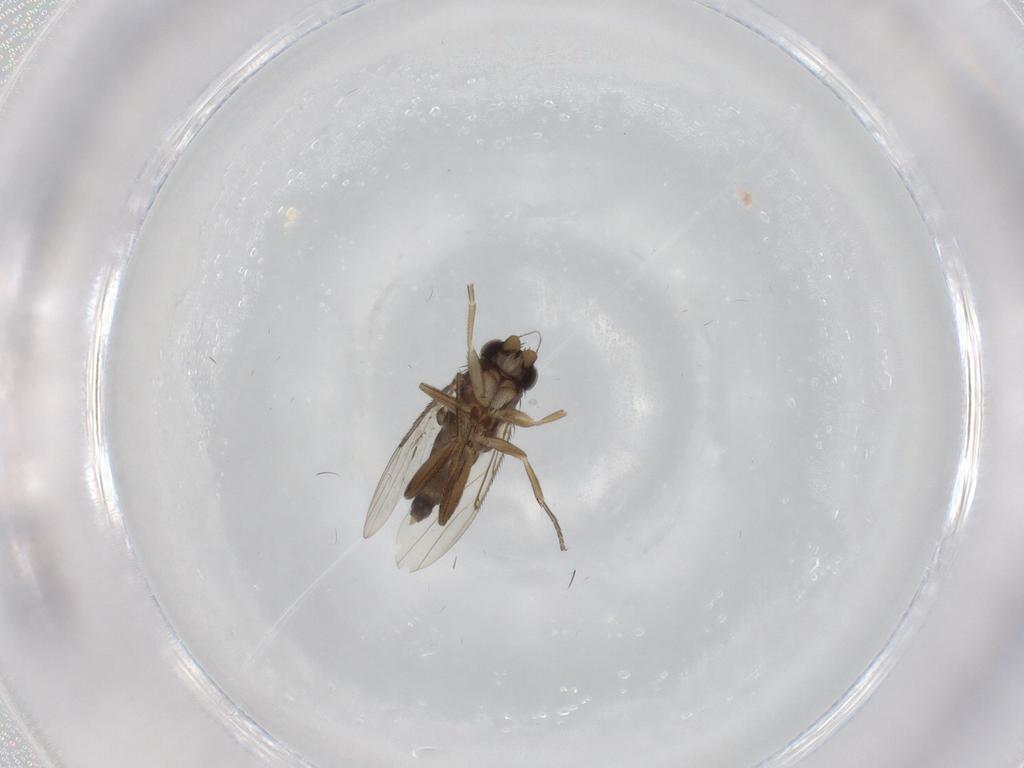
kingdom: Animalia
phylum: Arthropoda
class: Insecta
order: Diptera
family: Phoridae
